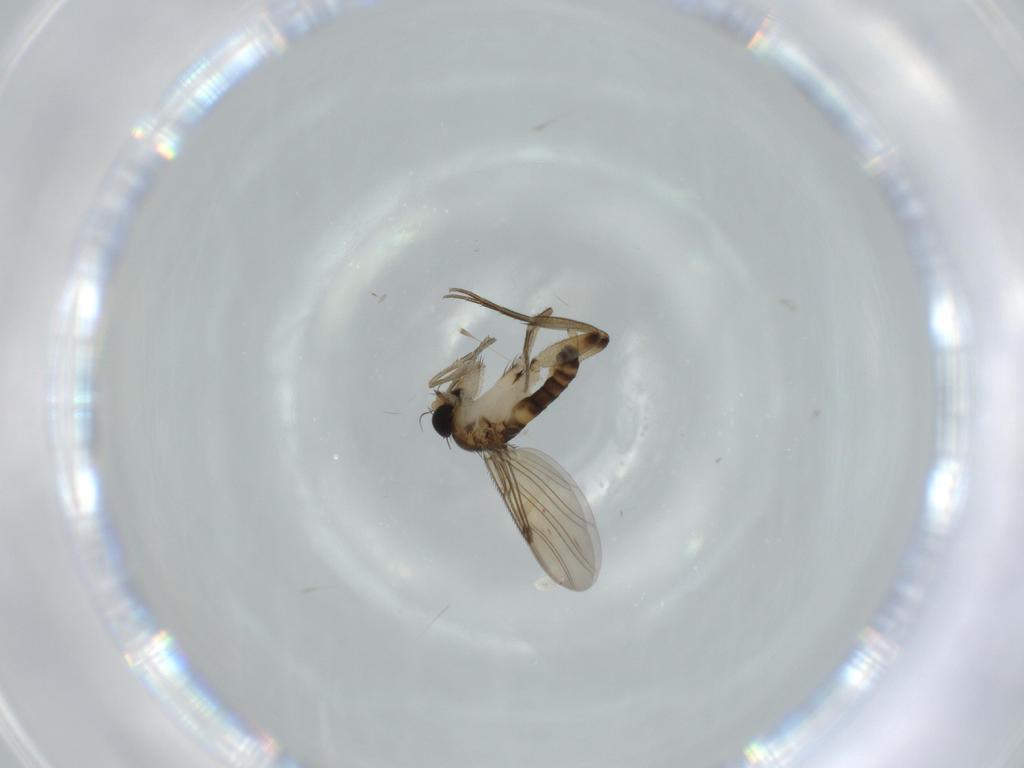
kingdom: Animalia
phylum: Arthropoda
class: Insecta
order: Diptera
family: Phoridae
